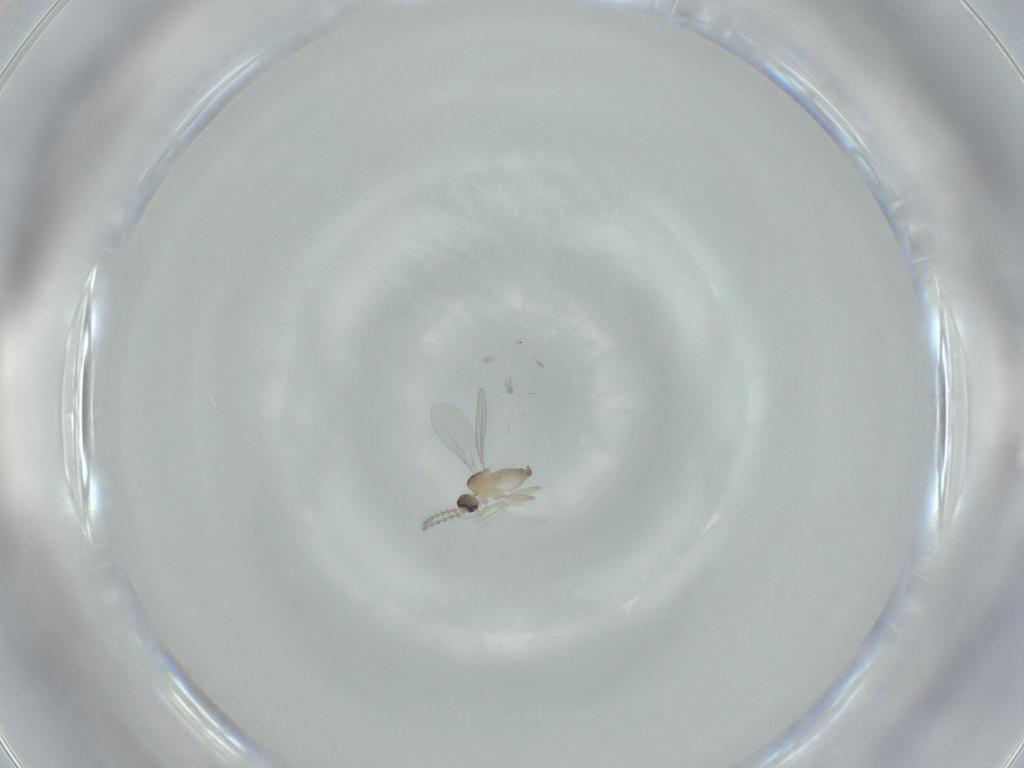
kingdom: Animalia
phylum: Arthropoda
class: Insecta
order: Diptera
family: Cecidomyiidae
